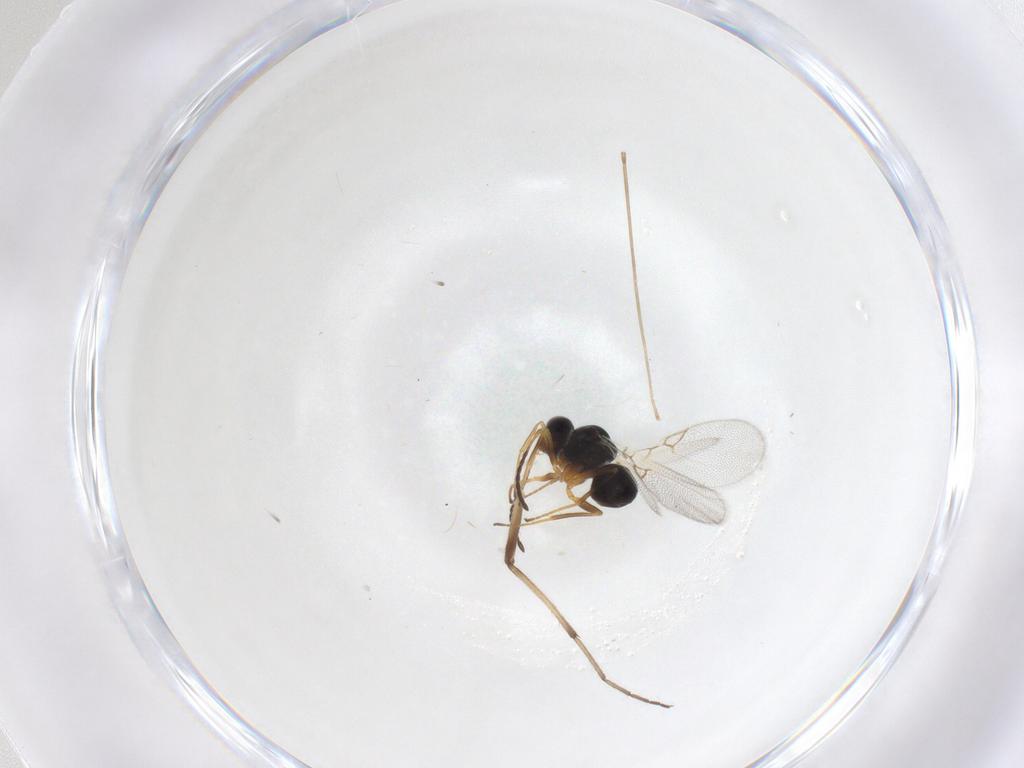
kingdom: Animalia
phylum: Arthropoda
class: Insecta
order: Hymenoptera
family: Figitidae
